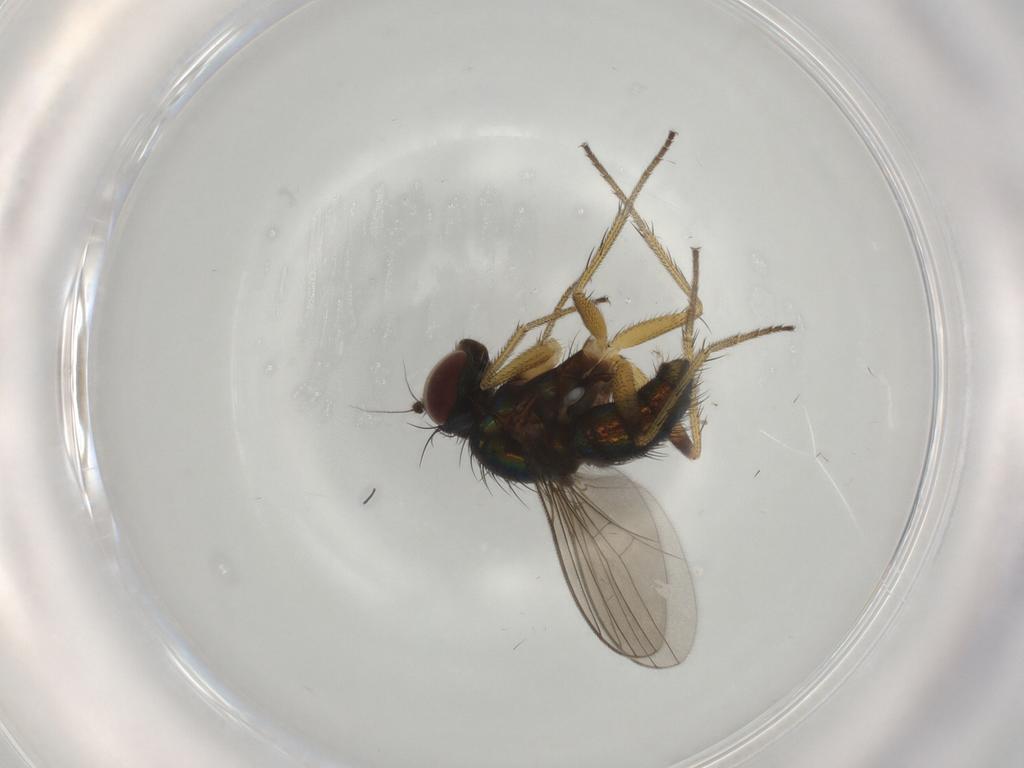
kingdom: Animalia
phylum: Arthropoda
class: Insecta
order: Diptera
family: Dolichopodidae
